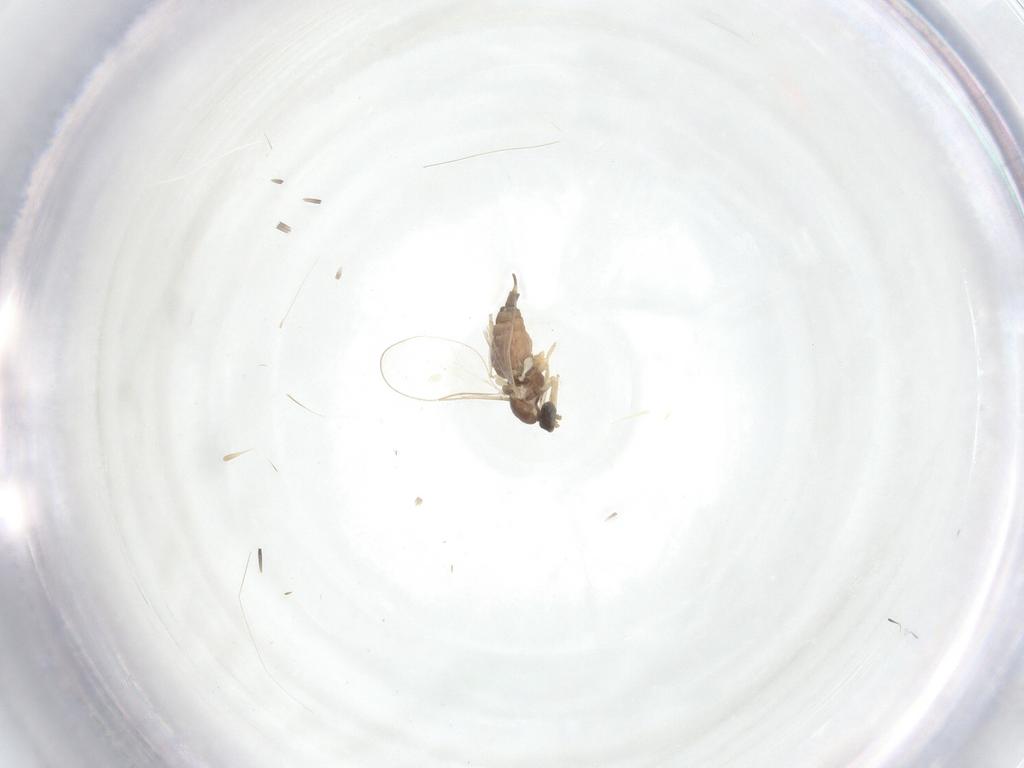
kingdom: Animalia
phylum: Arthropoda
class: Insecta
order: Diptera
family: Cecidomyiidae
